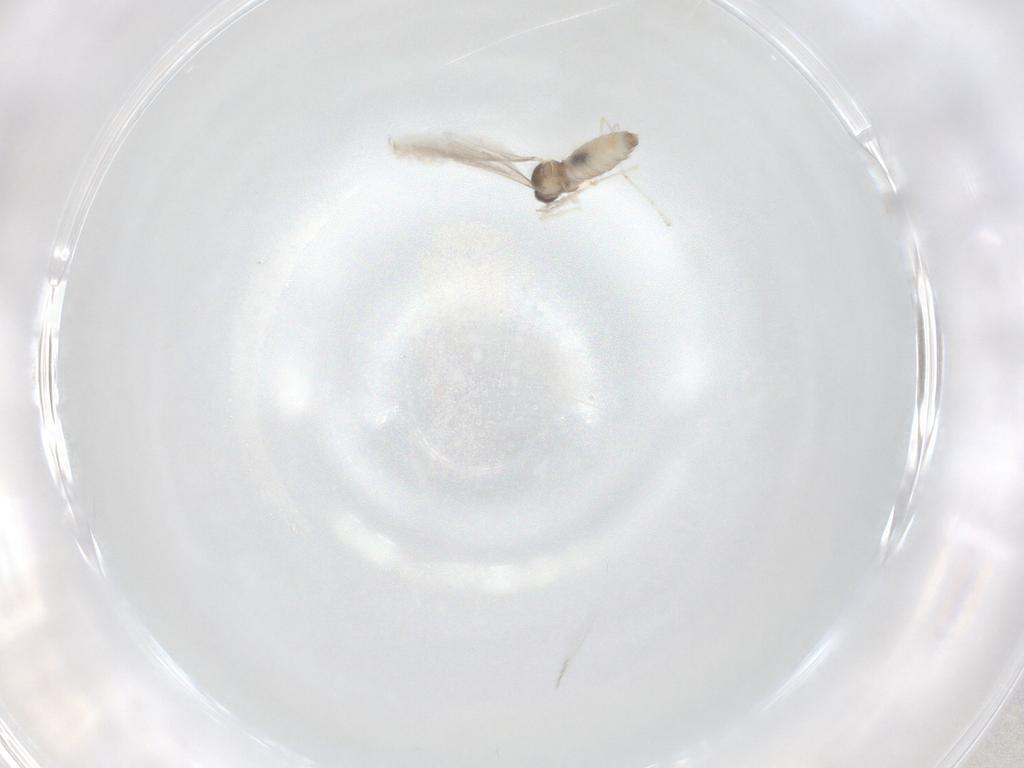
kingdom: Animalia
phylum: Arthropoda
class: Insecta
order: Diptera
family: Cecidomyiidae
